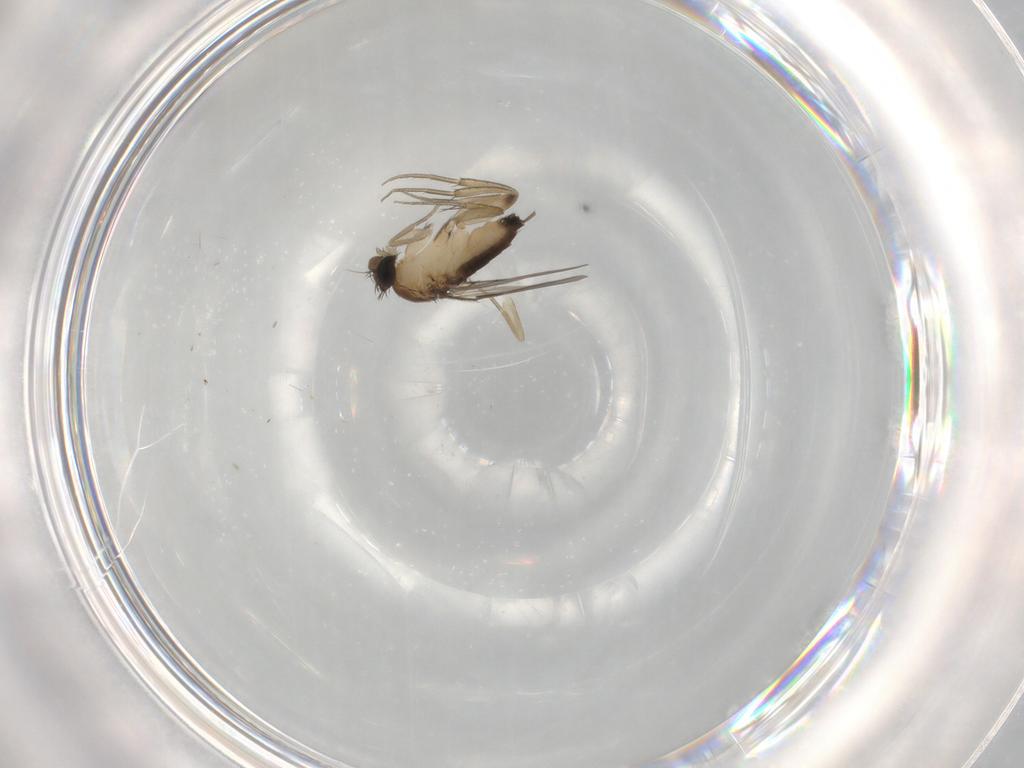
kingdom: Animalia
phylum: Arthropoda
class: Insecta
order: Diptera
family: Phoridae
